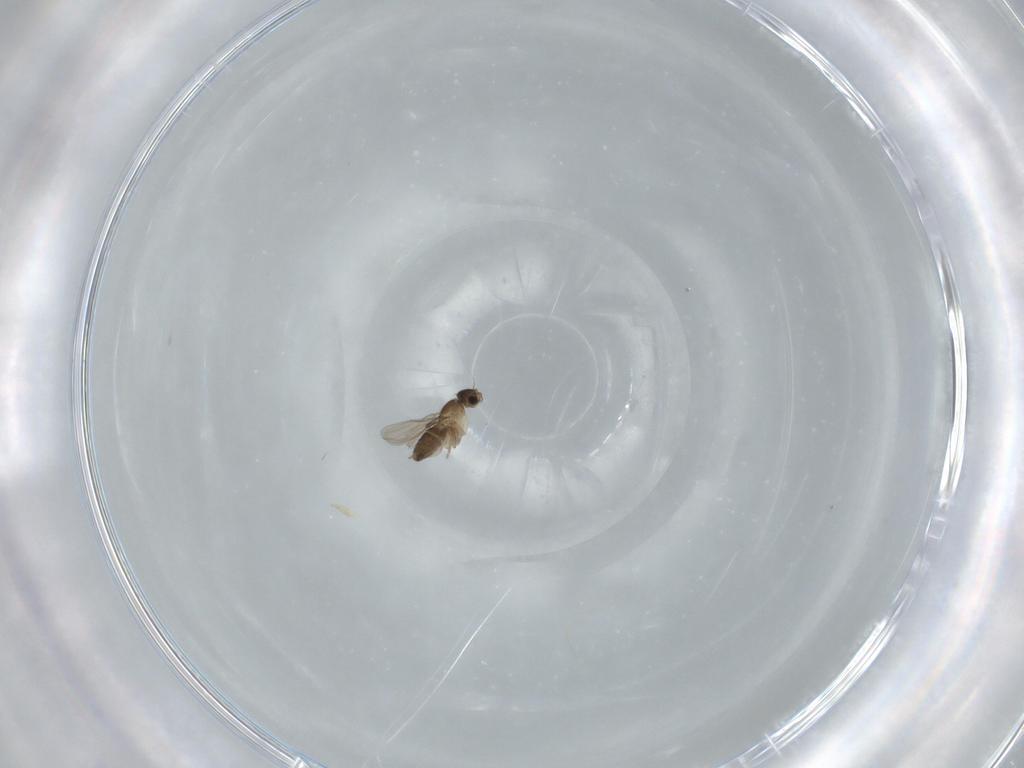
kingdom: Animalia
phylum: Arthropoda
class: Insecta
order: Diptera
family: Phoridae
